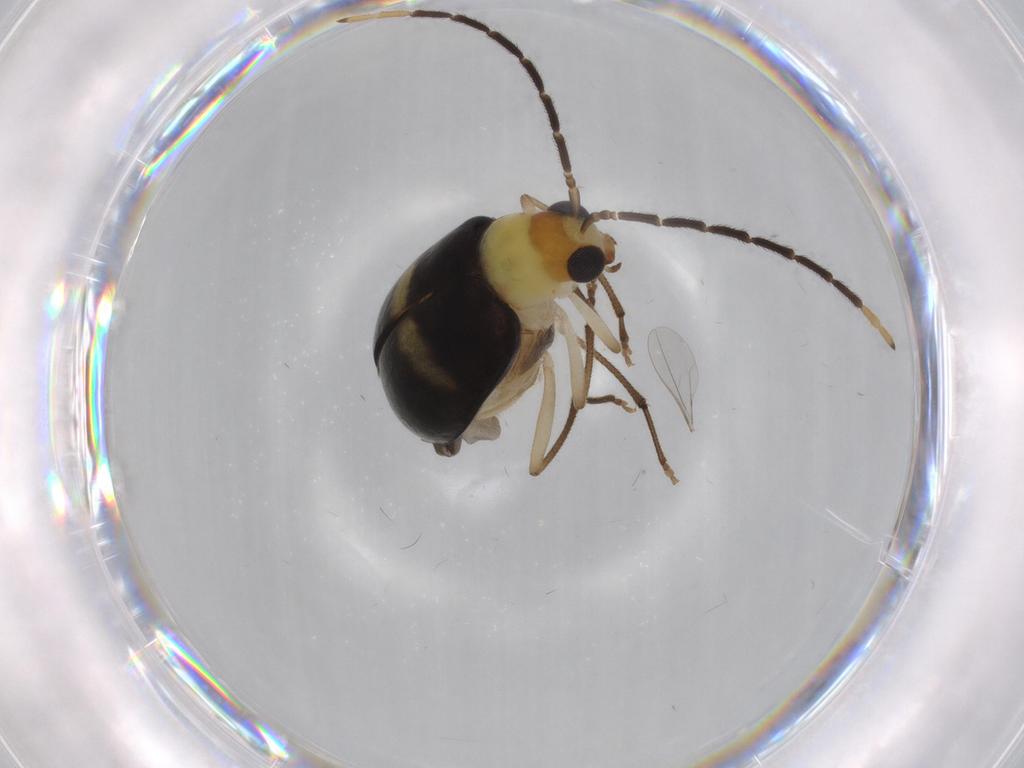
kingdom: Animalia
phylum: Arthropoda
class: Insecta
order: Coleoptera
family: Chrysomelidae
